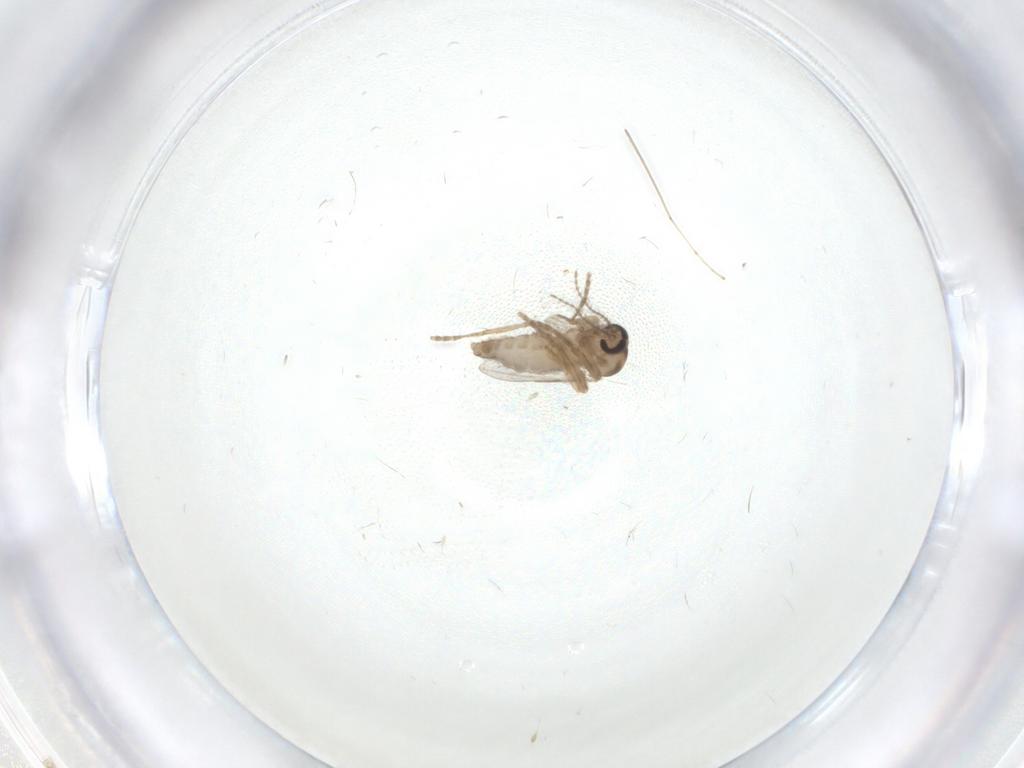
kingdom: Animalia
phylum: Arthropoda
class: Insecta
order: Diptera
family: Ceratopogonidae
